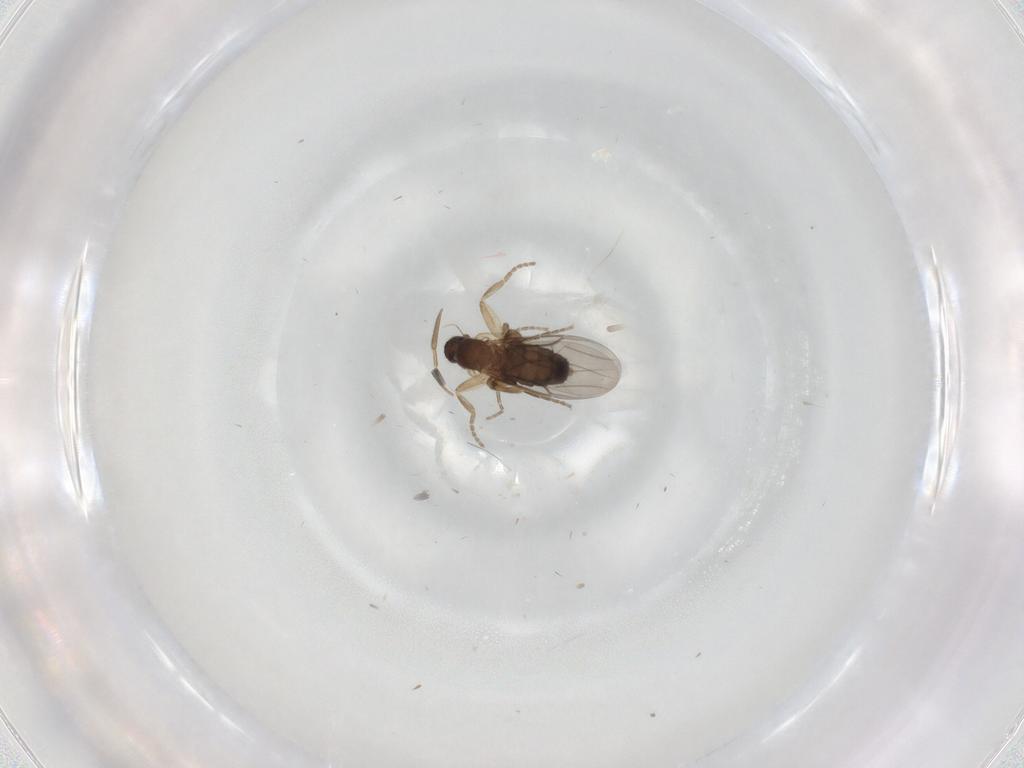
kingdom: Animalia
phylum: Arthropoda
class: Insecta
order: Diptera
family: Phoridae
